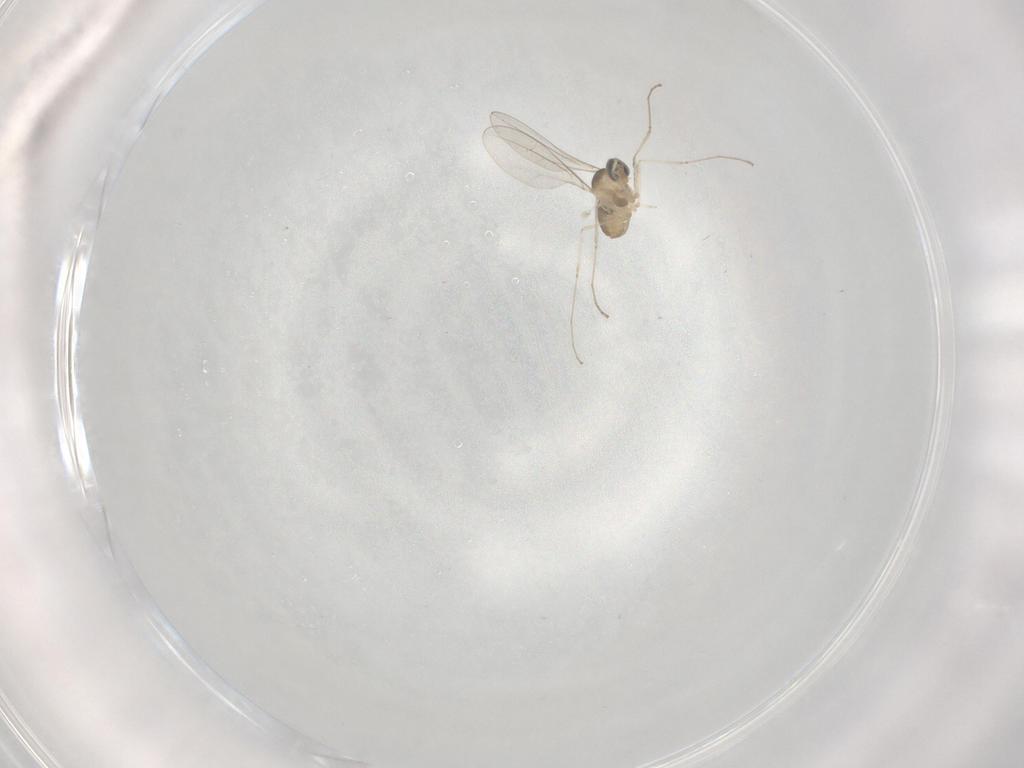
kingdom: Animalia
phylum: Arthropoda
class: Insecta
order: Diptera
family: Cecidomyiidae
